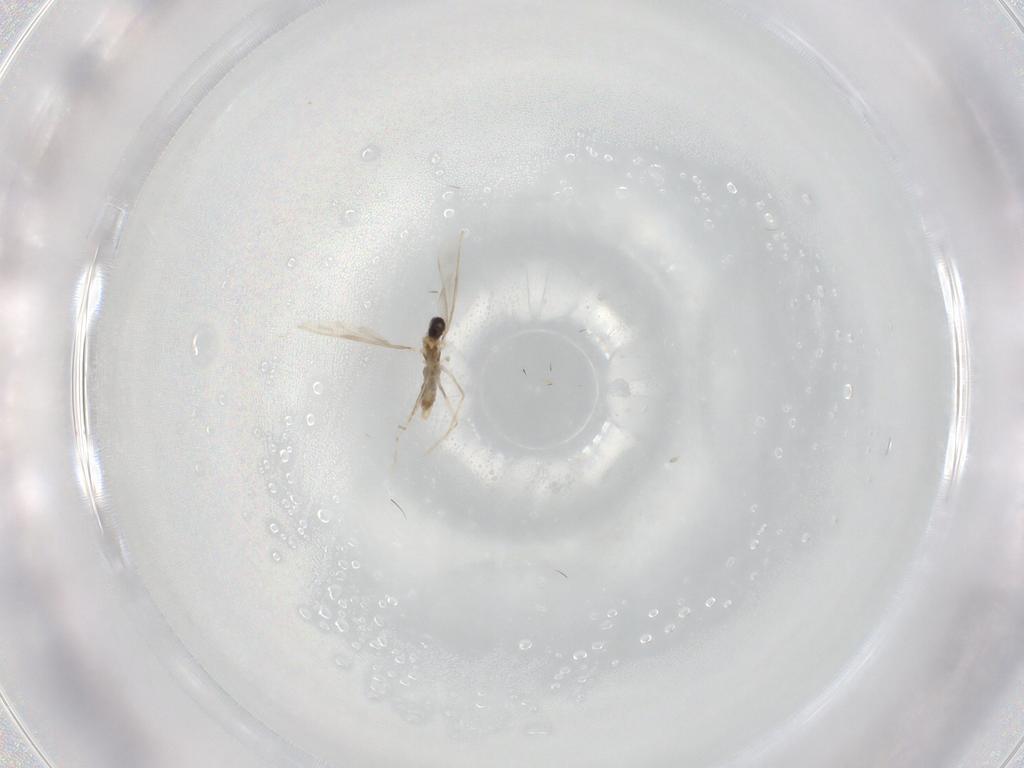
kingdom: Animalia
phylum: Arthropoda
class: Insecta
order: Diptera
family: Cecidomyiidae
